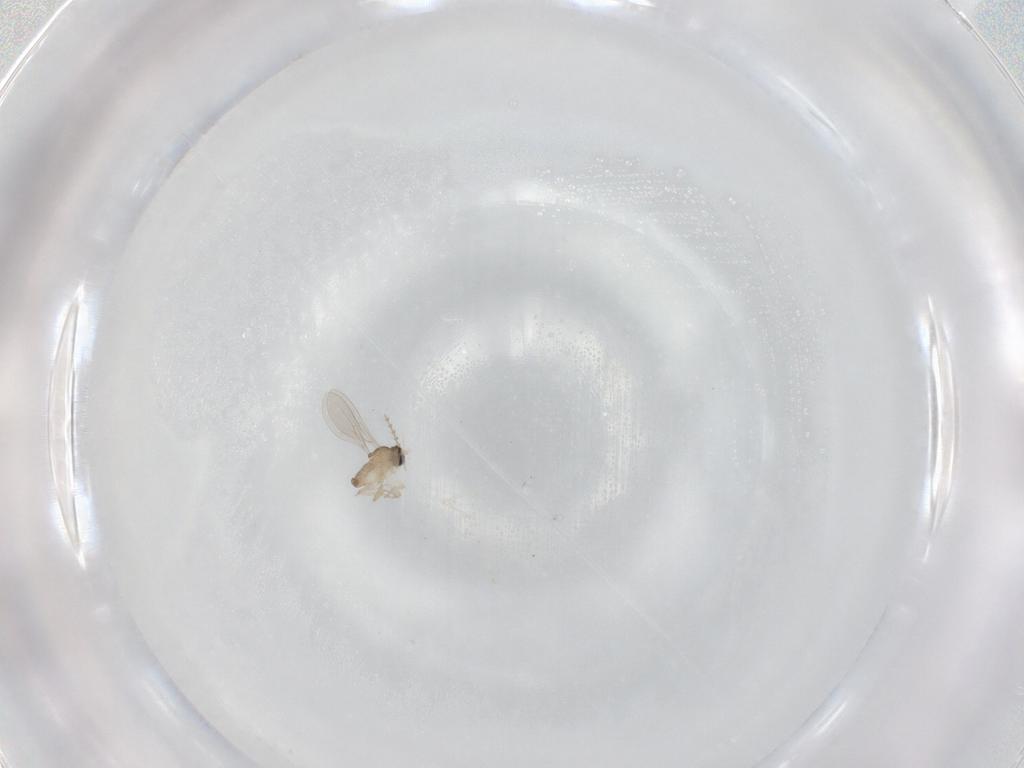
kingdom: Animalia
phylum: Arthropoda
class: Insecta
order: Diptera
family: Cecidomyiidae
